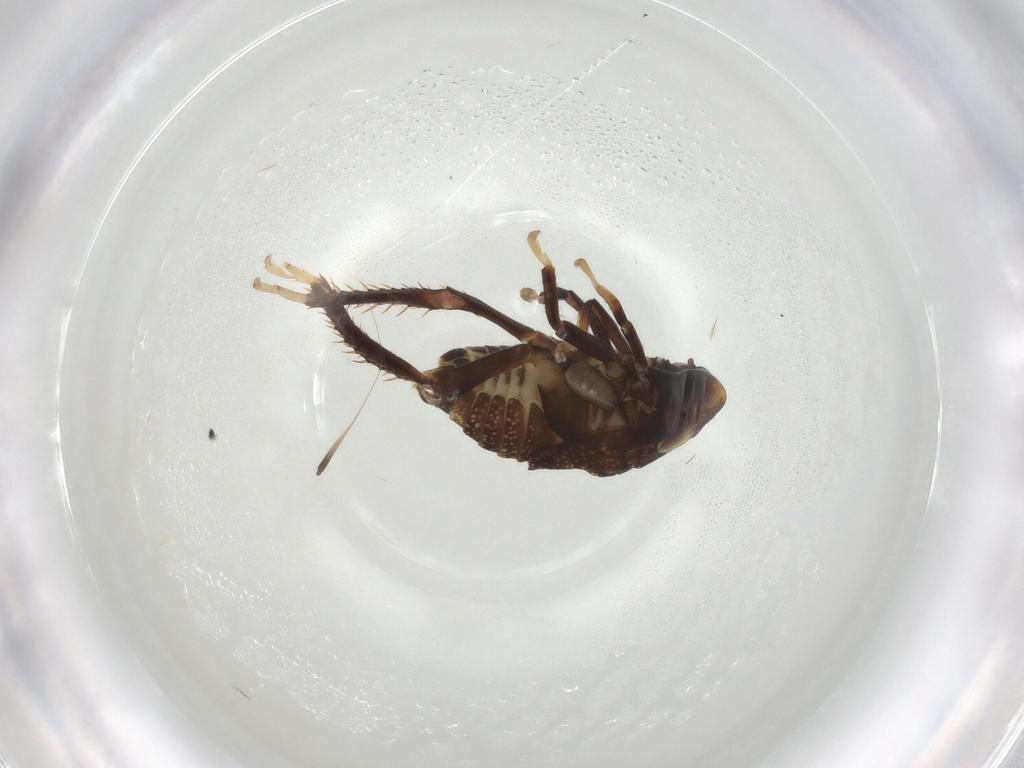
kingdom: Animalia
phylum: Arthropoda
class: Insecta
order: Hemiptera
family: Cicadellidae
